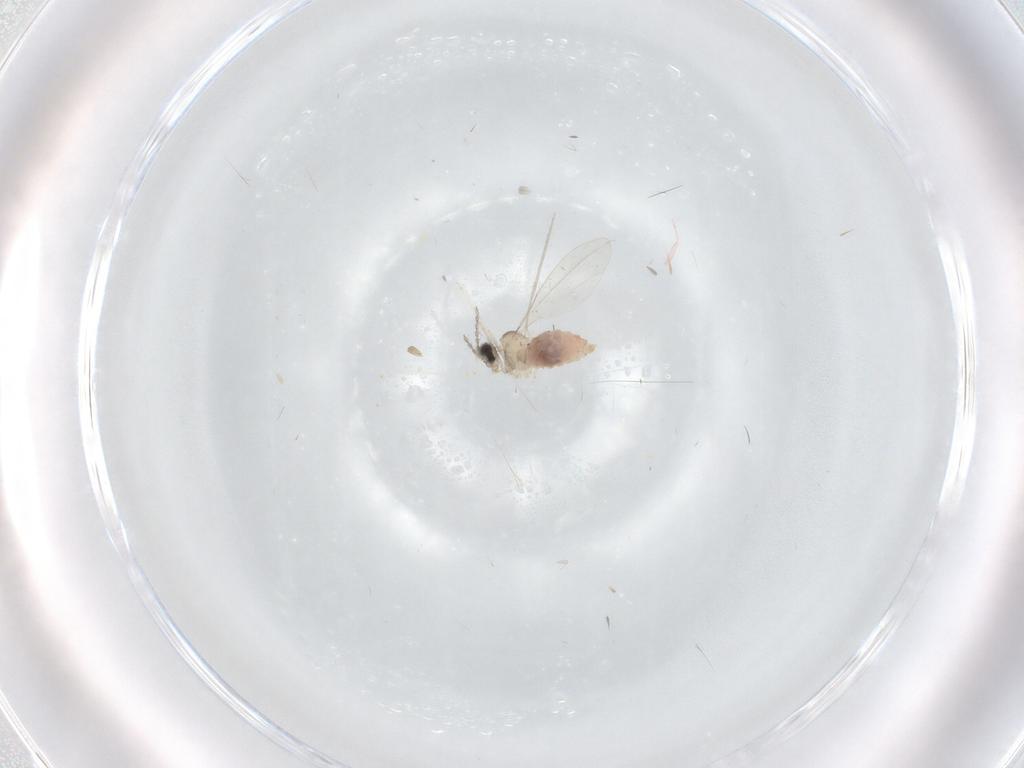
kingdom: Animalia
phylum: Arthropoda
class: Insecta
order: Diptera
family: Cecidomyiidae
